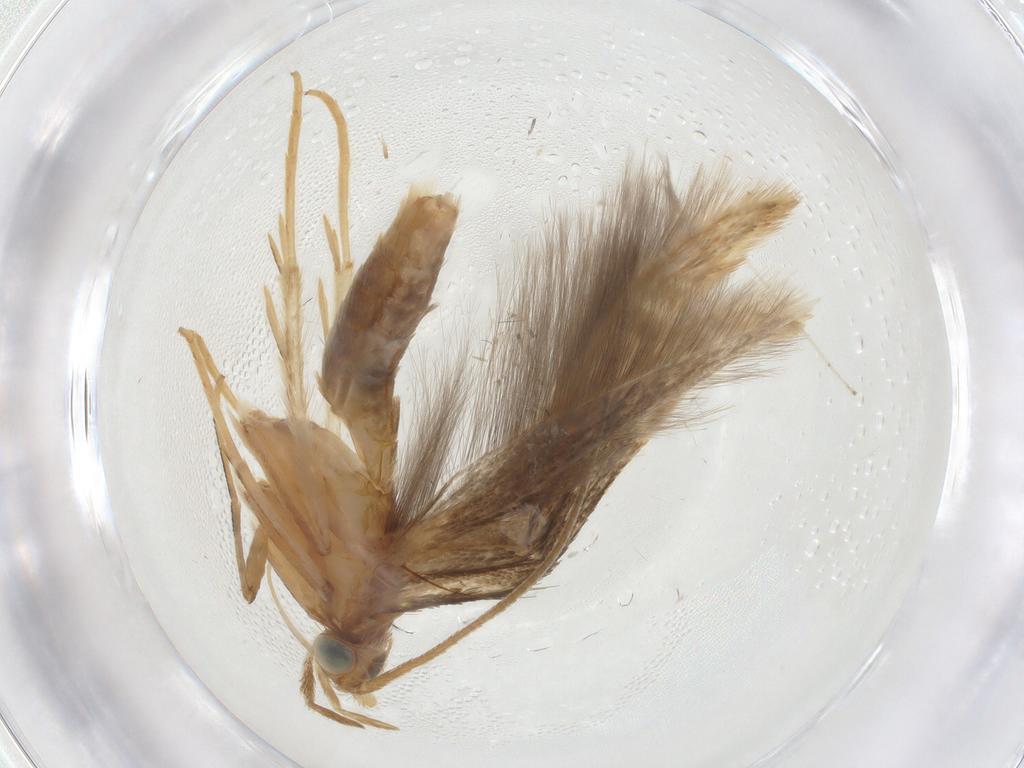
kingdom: Animalia
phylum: Arthropoda
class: Insecta
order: Lepidoptera
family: Coleophoridae
